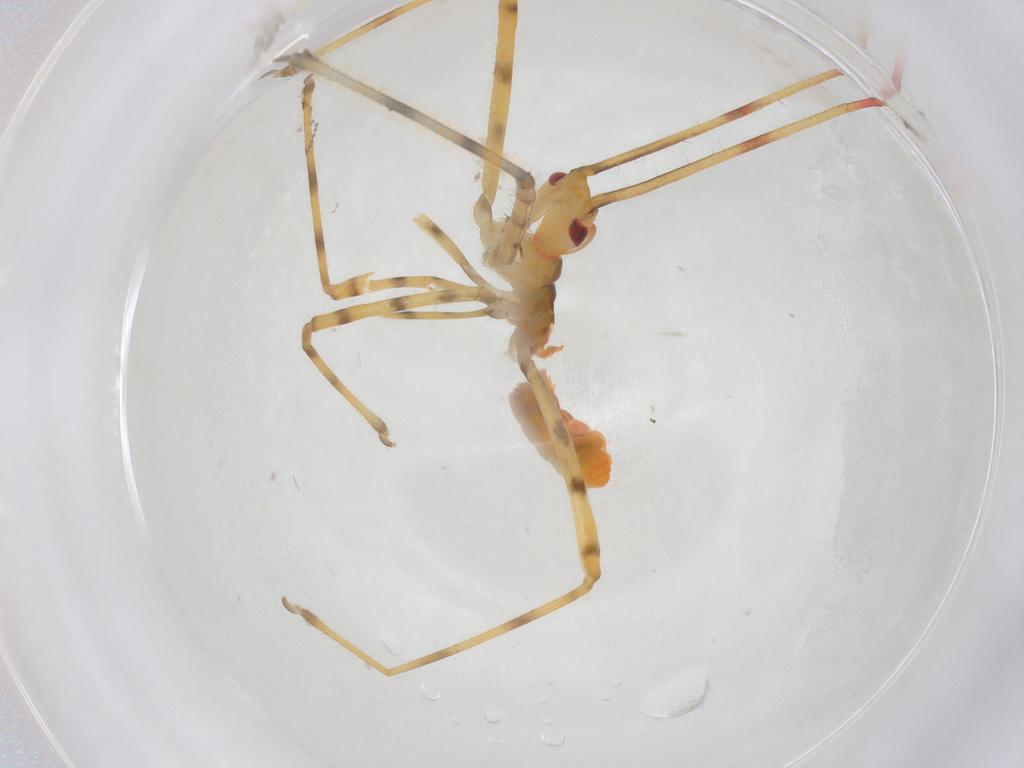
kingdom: Animalia
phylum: Arthropoda
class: Insecta
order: Hemiptera
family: Reduviidae
